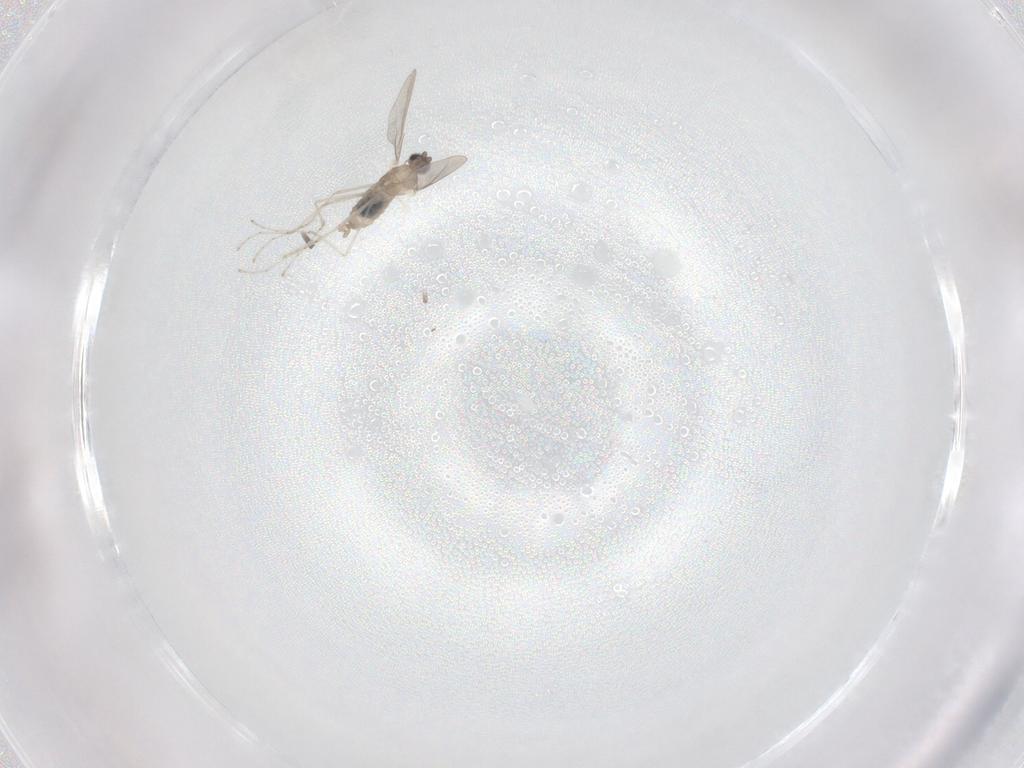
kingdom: Animalia
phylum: Arthropoda
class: Insecta
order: Diptera
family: Cecidomyiidae
